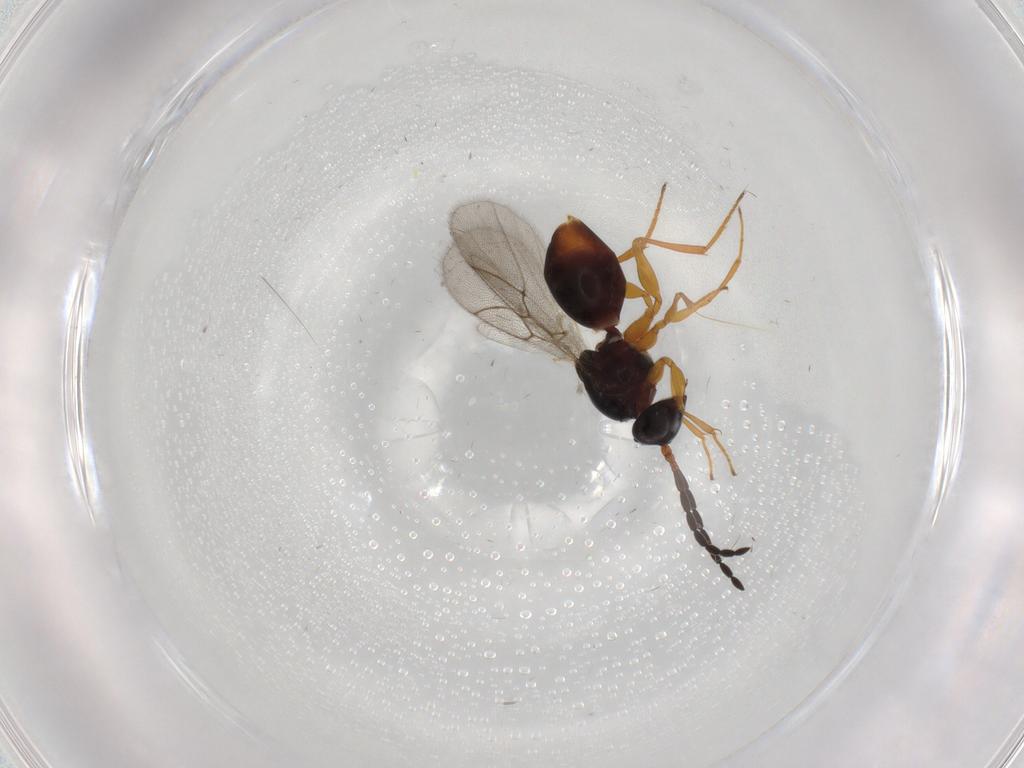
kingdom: Animalia
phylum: Arthropoda
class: Insecta
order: Hymenoptera
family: Figitidae
